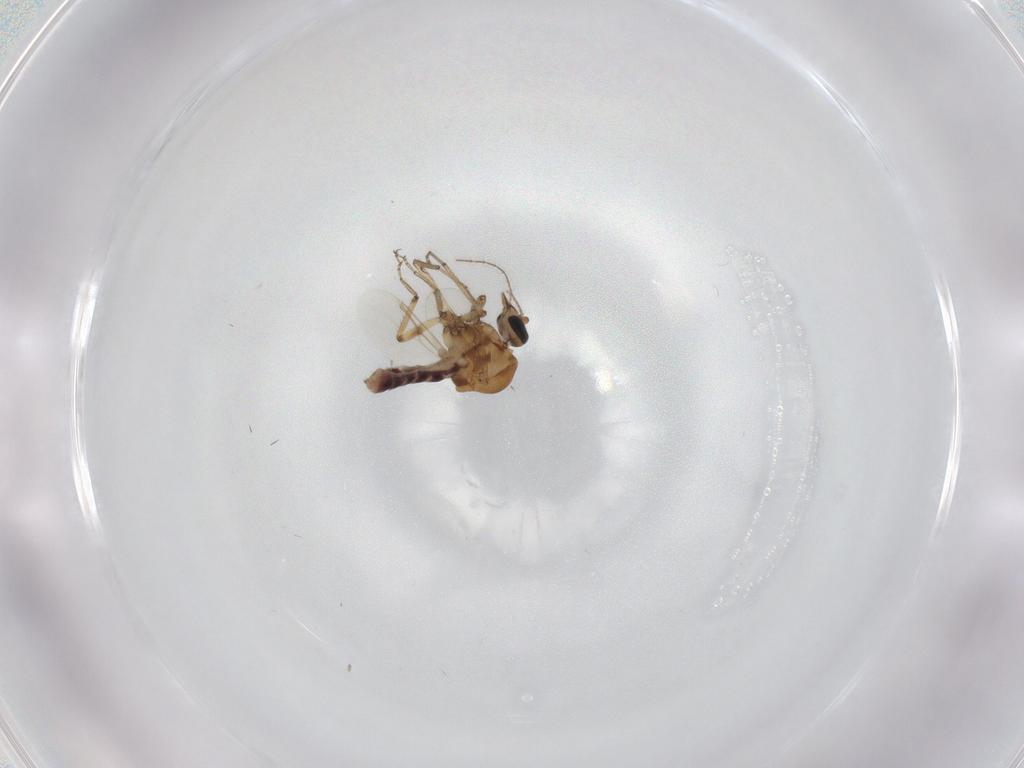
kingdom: Animalia
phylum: Arthropoda
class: Insecta
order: Diptera
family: Ceratopogonidae
